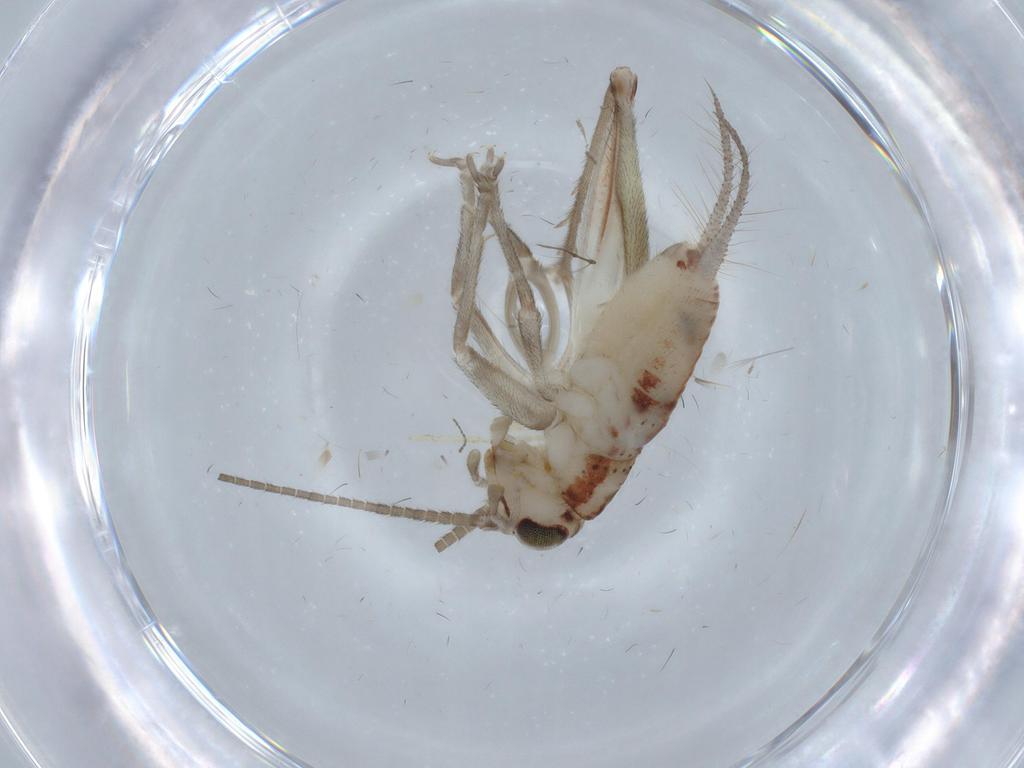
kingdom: Animalia
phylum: Arthropoda
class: Insecta
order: Orthoptera
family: Trigonidiidae
